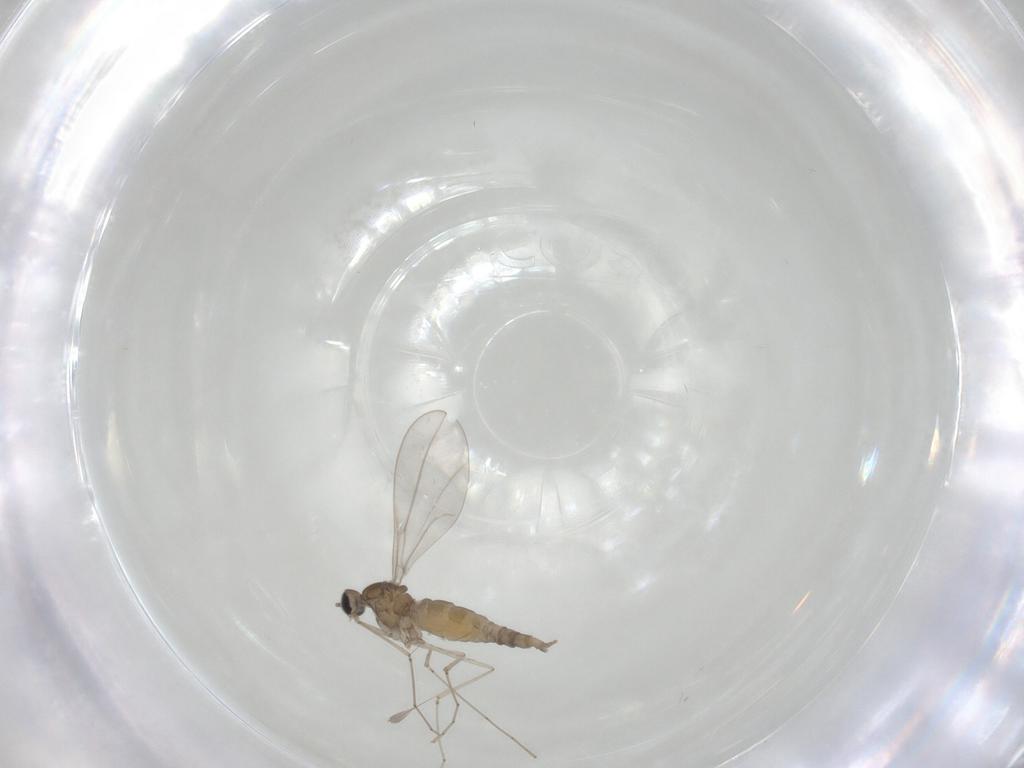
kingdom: Animalia
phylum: Arthropoda
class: Insecta
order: Diptera
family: Cecidomyiidae
